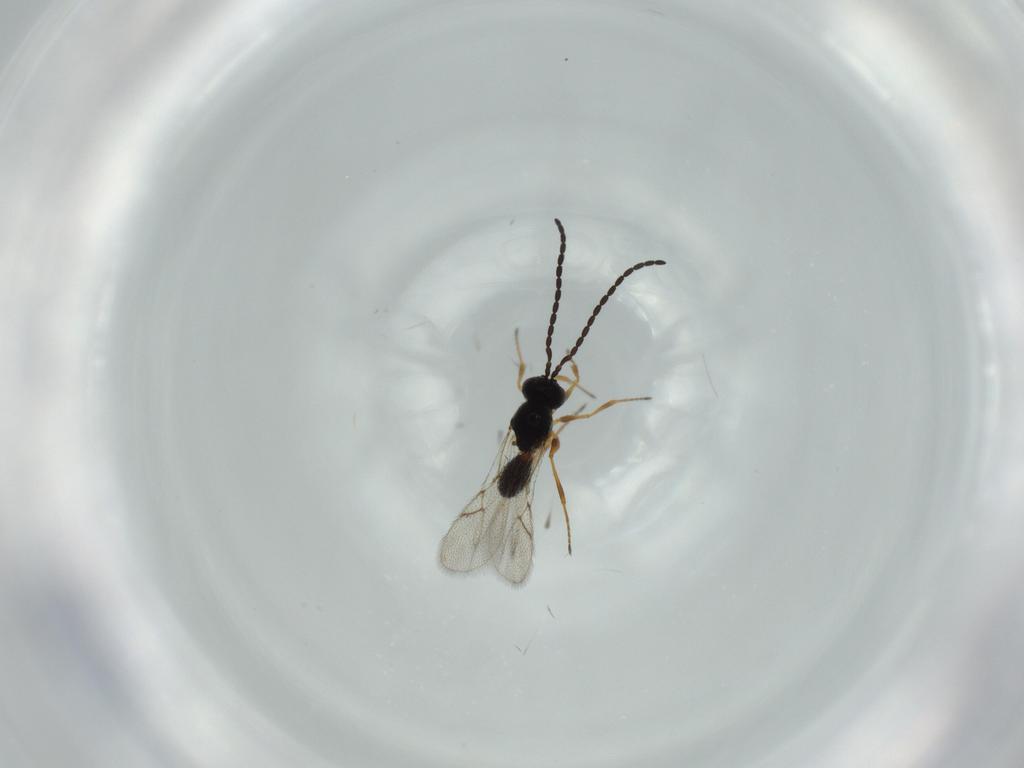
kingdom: Animalia
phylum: Arthropoda
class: Insecta
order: Hymenoptera
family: Figitidae
